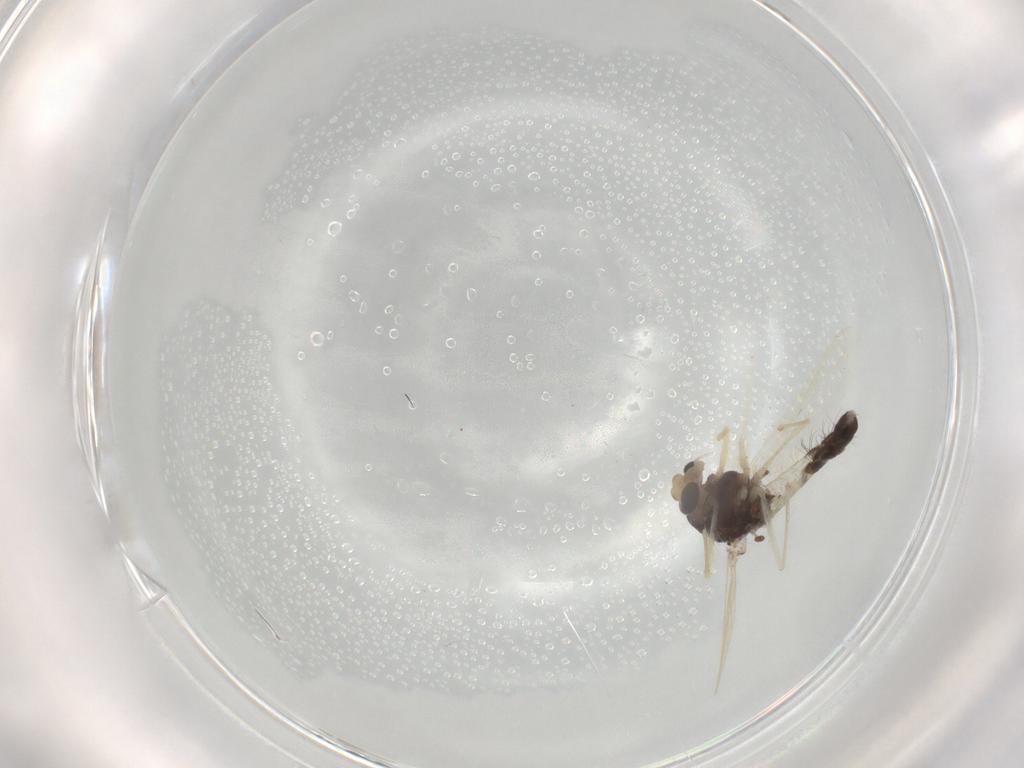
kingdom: Animalia
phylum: Arthropoda
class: Insecta
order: Diptera
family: Chironomidae
